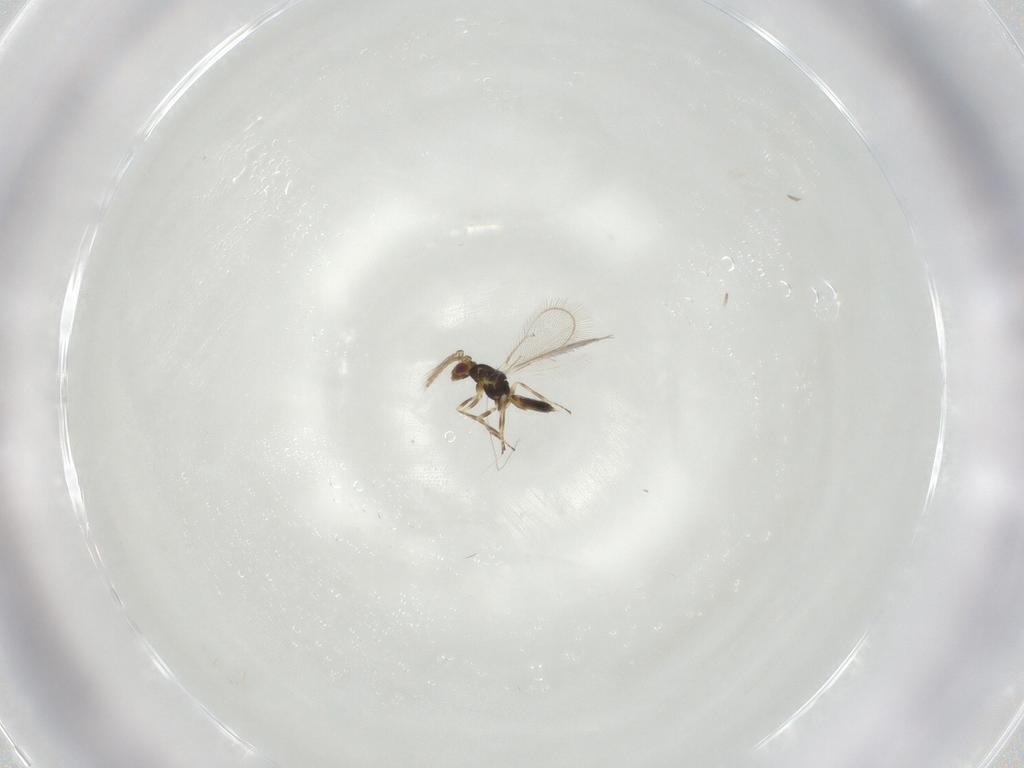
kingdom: Animalia
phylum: Arthropoda
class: Insecta
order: Hymenoptera
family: Eulophidae
